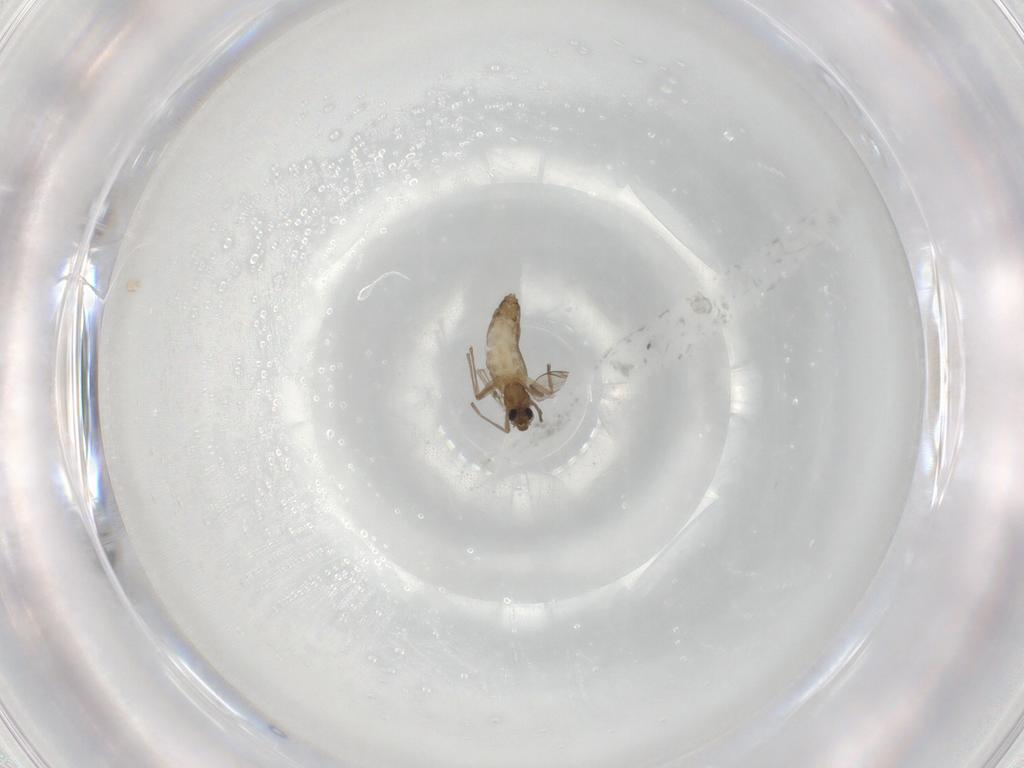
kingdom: Animalia
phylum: Arthropoda
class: Insecta
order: Diptera
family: Chironomidae
